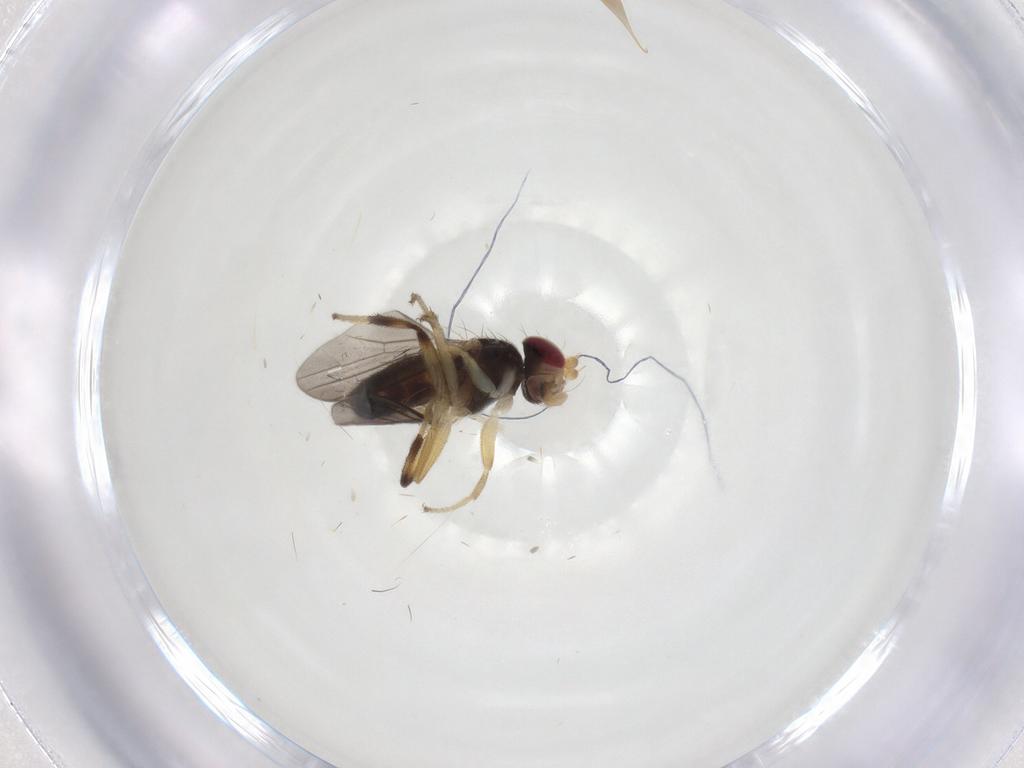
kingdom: Animalia
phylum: Arthropoda
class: Insecta
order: Diptera
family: Clusiidae
